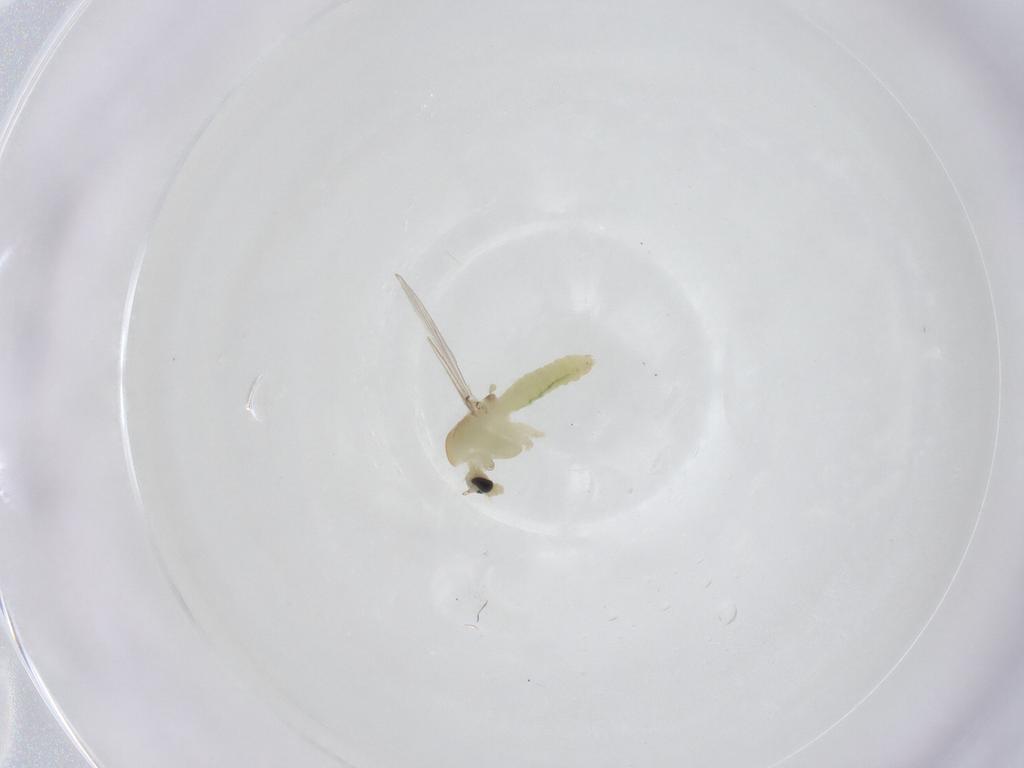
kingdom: Animalia
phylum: Arthropoda
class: Insecta
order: Diptera
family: Chironomidae
